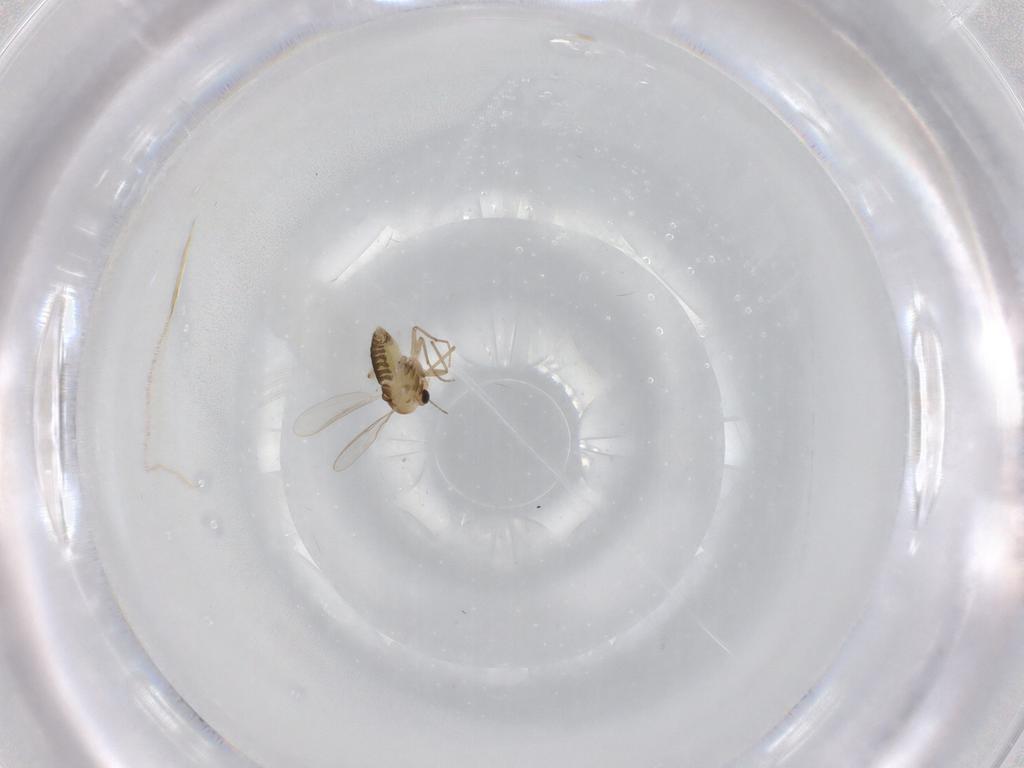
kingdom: Animalia
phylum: Arthropoda
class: Insecta
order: Diptera
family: Chironomidae
